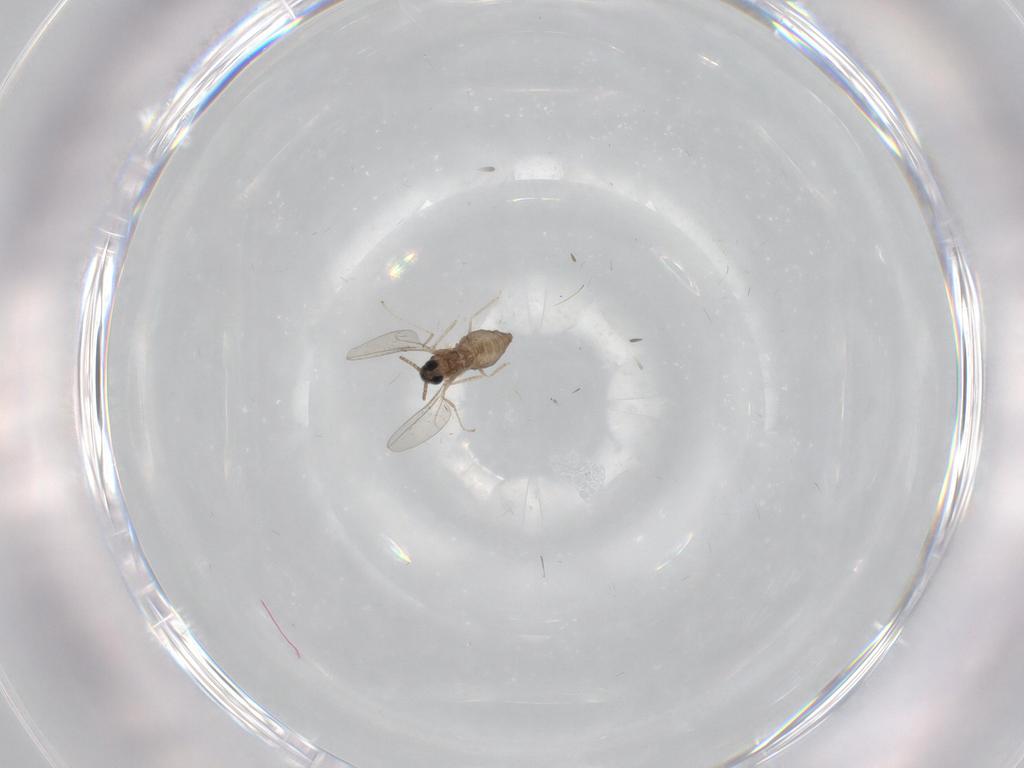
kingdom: Animalia
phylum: Arthropoda
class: Insecta
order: Diptera
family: Cecidomyiidae
